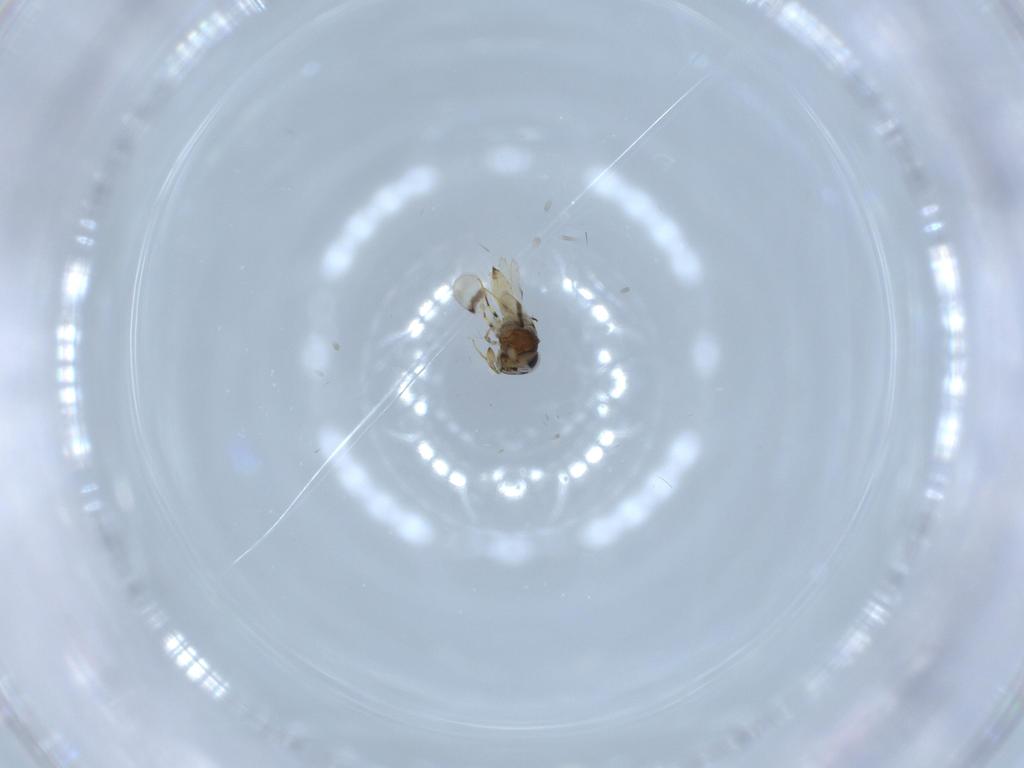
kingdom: Animalia
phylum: Arthropoda
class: Insecta
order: Hymenoptera
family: Scelionidae
